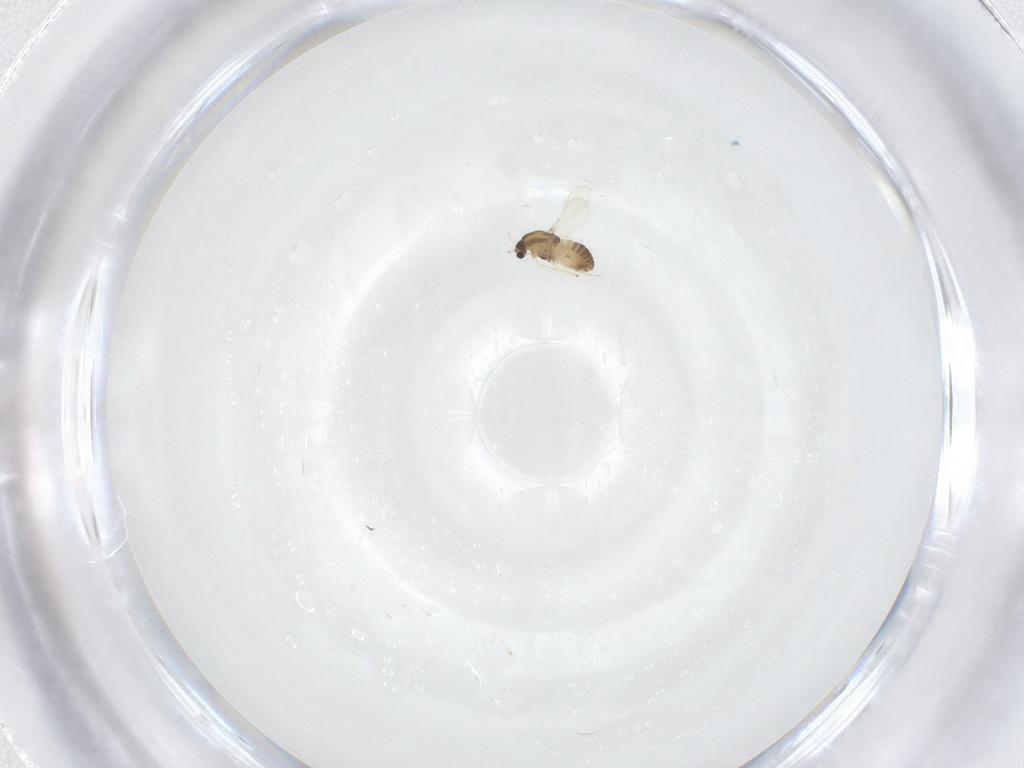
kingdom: Animalia
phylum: Arthropoda
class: Insecta
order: Diptera
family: Chironomidae
